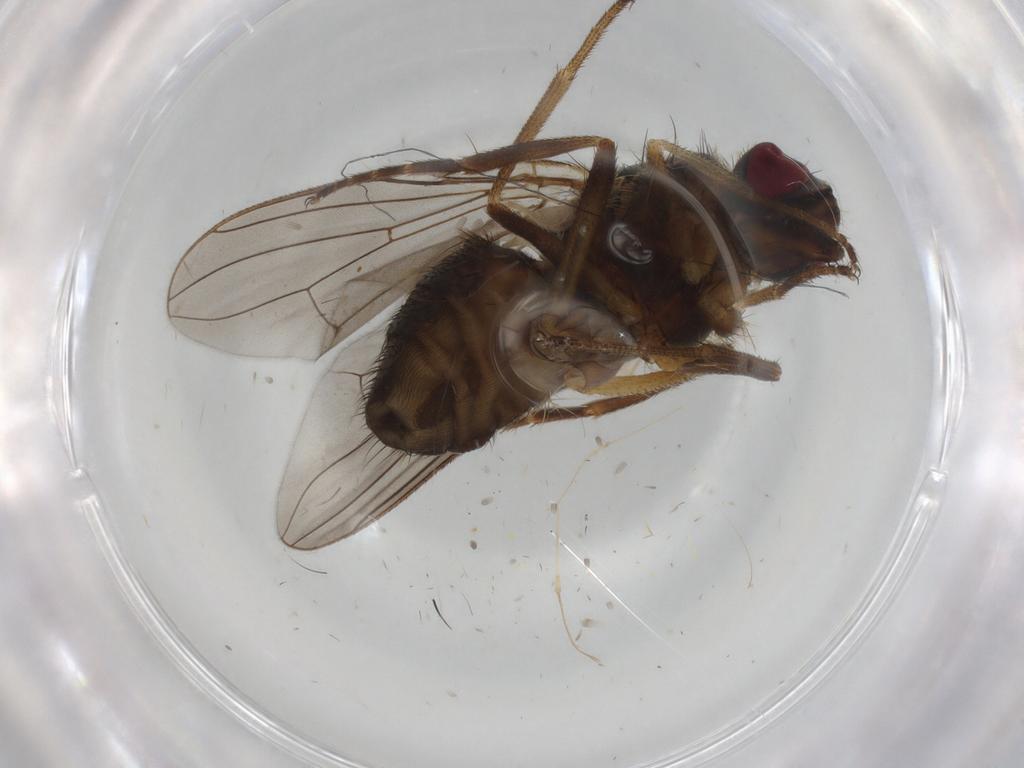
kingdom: Animalia
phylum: Arthropoda
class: Insecta
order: Diptera
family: Cecidomyiidae
